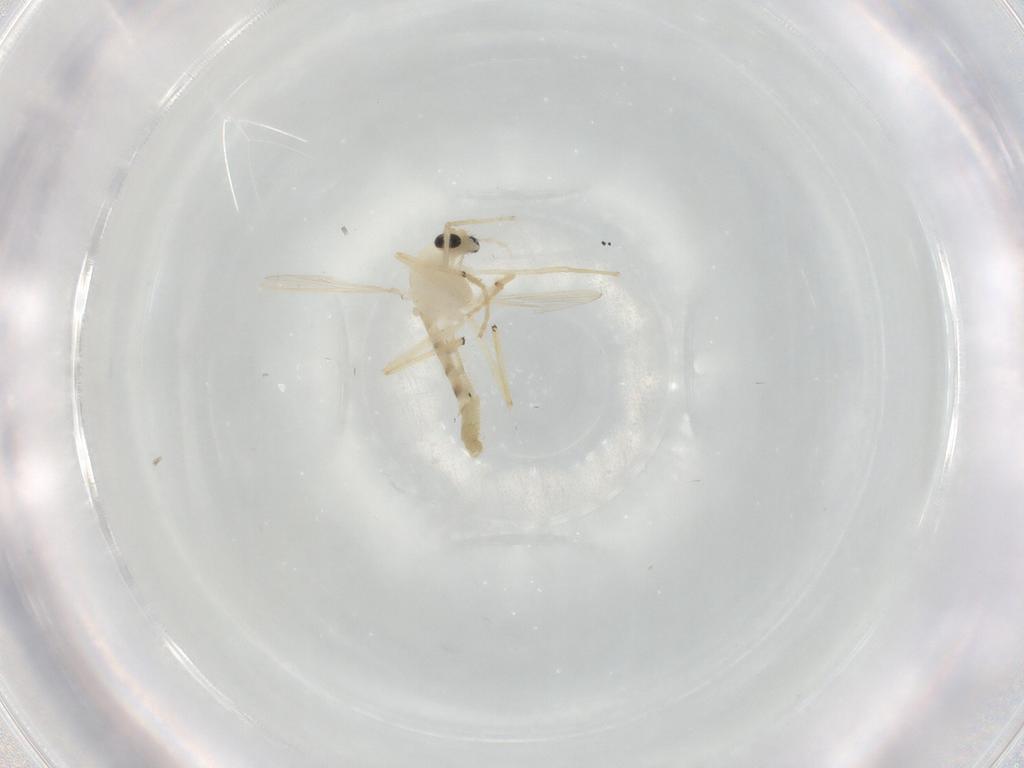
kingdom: Animalia
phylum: Arthropoda
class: Insecta
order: Diptera
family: Chironomidae
